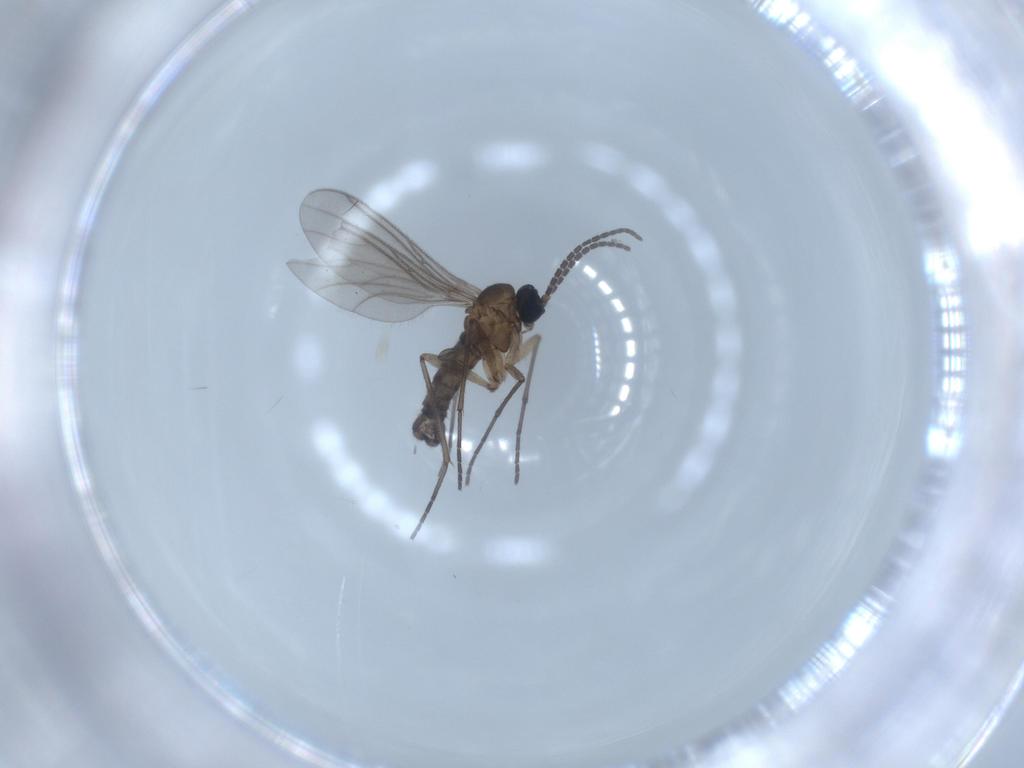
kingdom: Animalia
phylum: Arthropoda
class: Insecta
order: Diptera
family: Sciaridae
